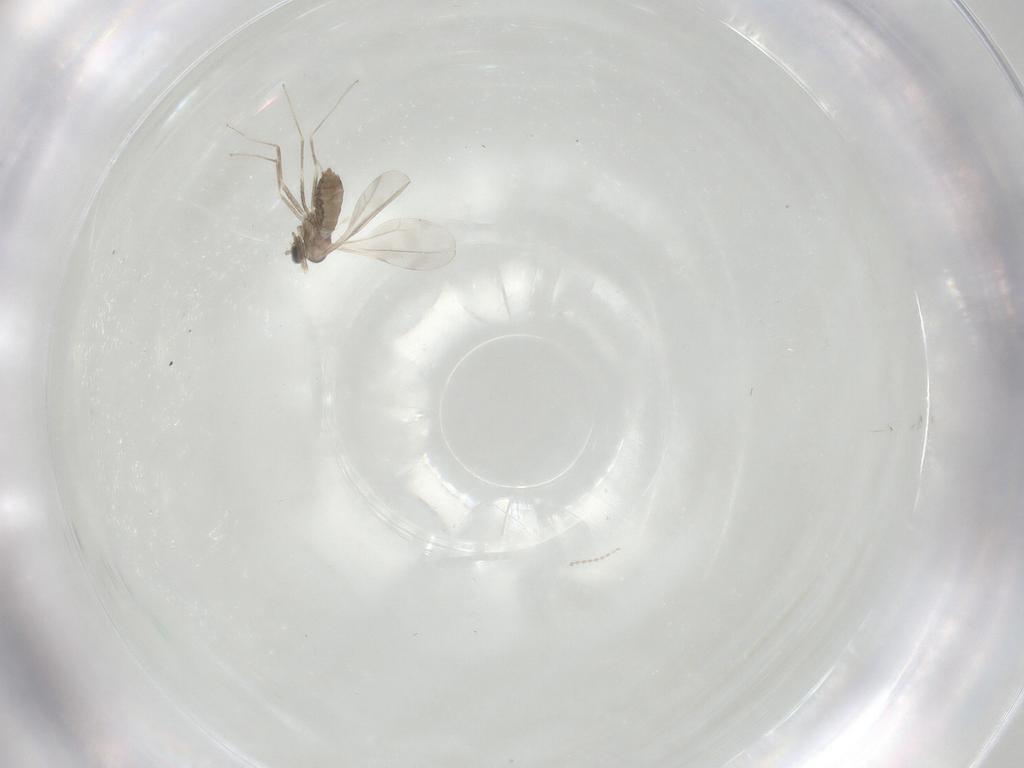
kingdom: Animalia
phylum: Arthropoda
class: Insecta
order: Diptera
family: Cecidomyiidae
